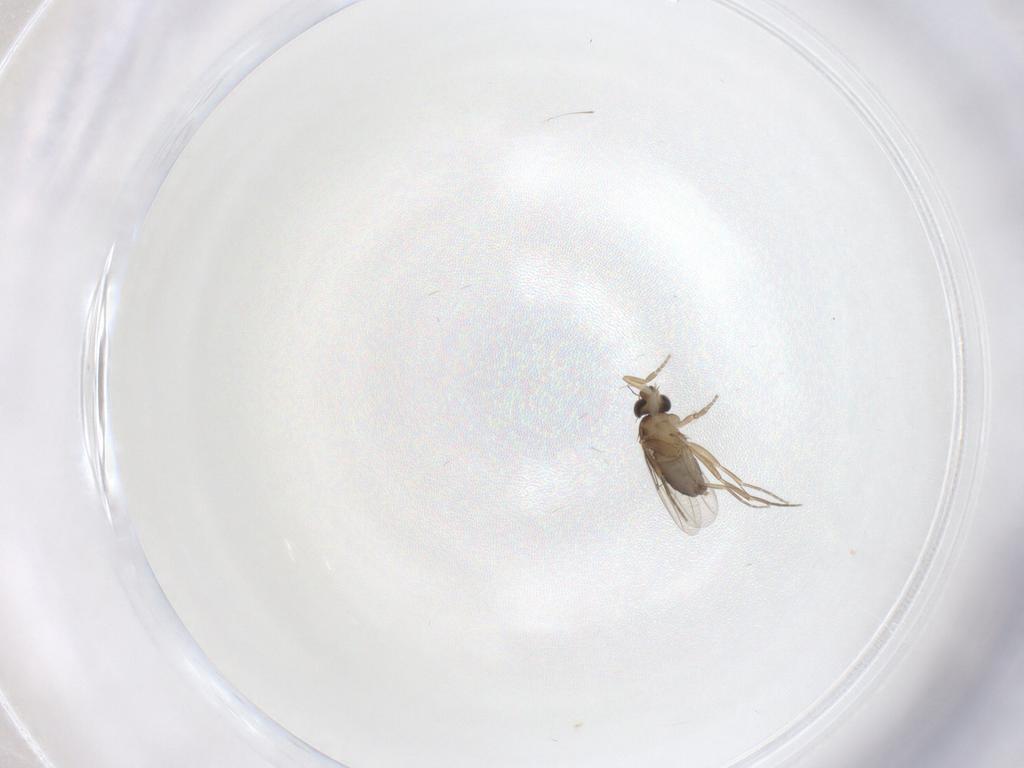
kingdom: Animalia
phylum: Arthropoda
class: Insecta
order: Diptera
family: Phoridae
